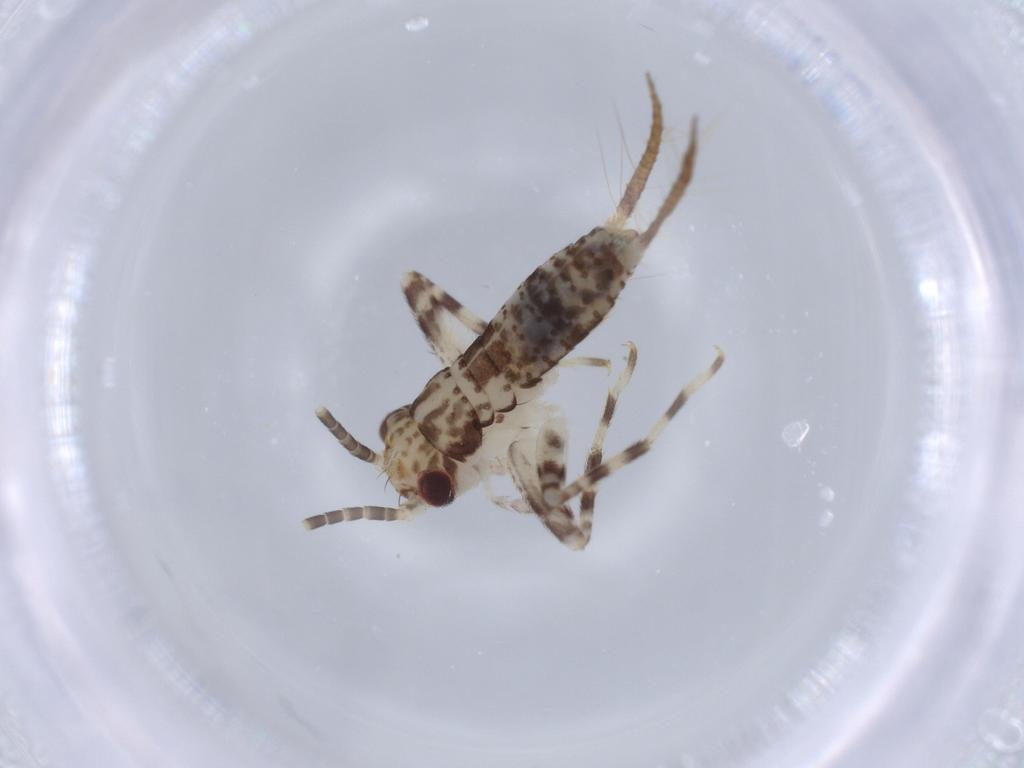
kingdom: Animalia
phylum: Arthropoda
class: Insecta
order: Orthoptera
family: Gryllidae
